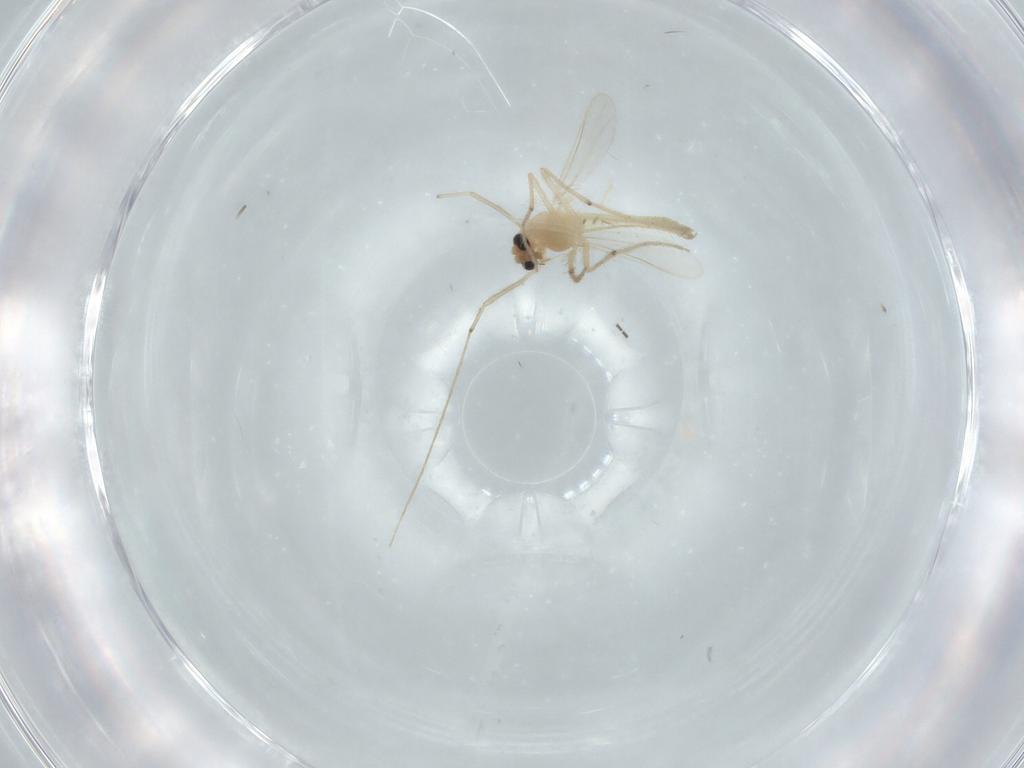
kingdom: Animalia
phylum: Arthropoda
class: Insecta
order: Diptera
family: Chironomidae
